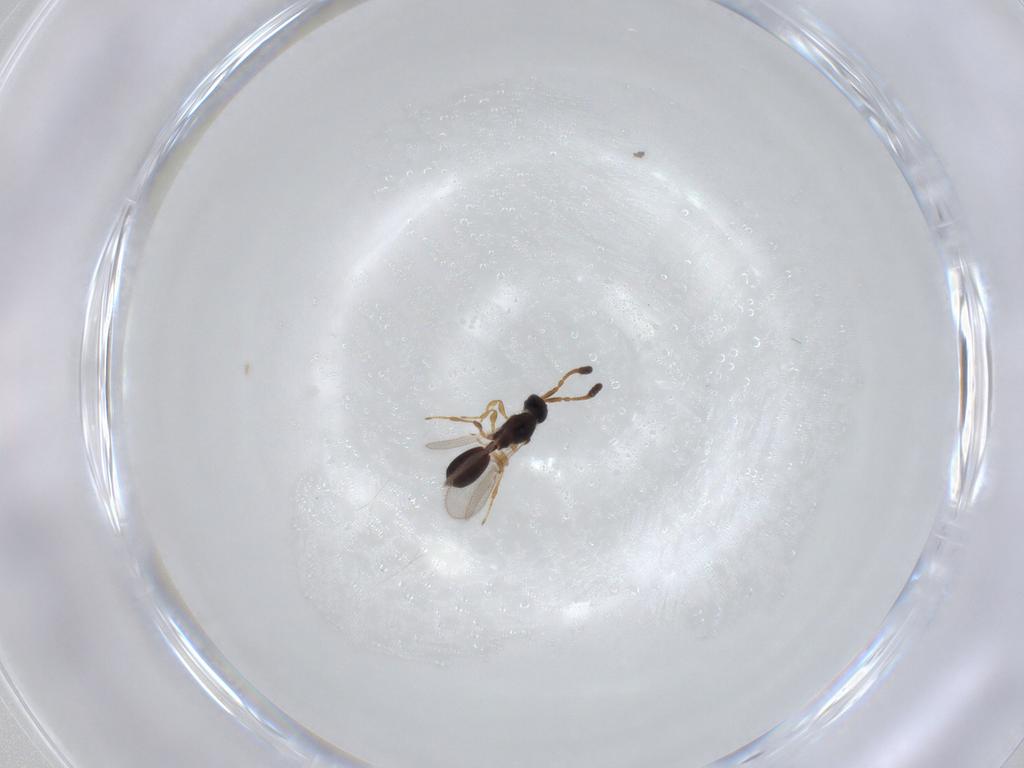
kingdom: Animalia
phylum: Arthropoda
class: Insecta
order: Hymenoptera
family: Diapriidae
